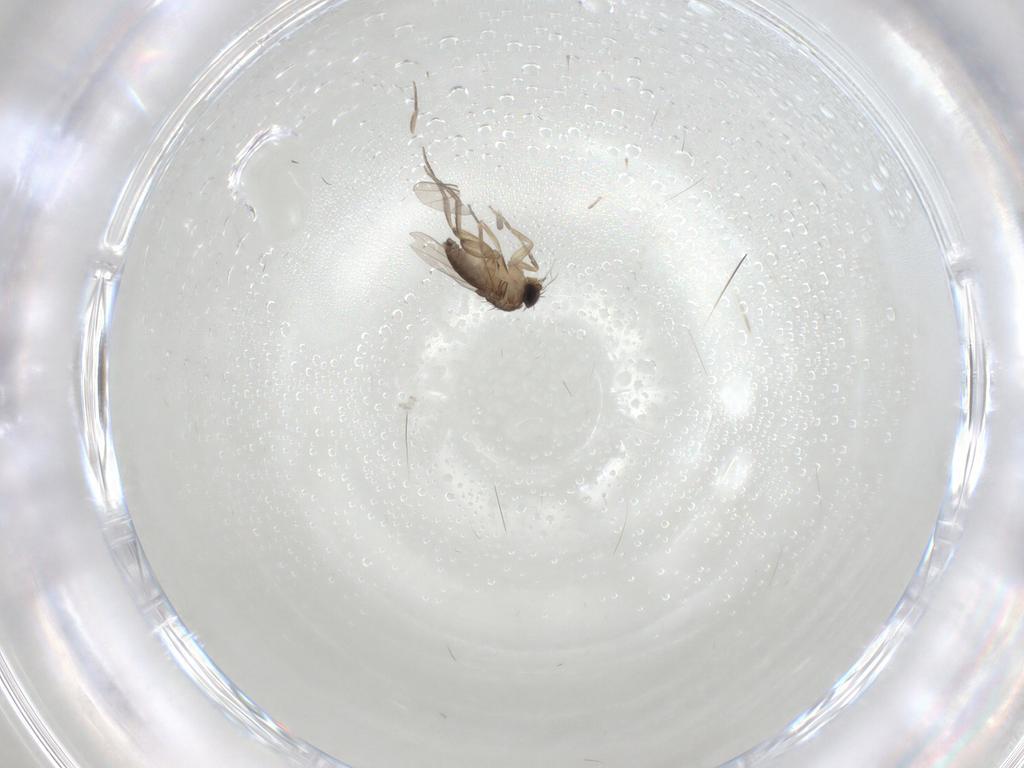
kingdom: Animalia
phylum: Arthropoda
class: Insecta
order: Diptera
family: Phoridae
